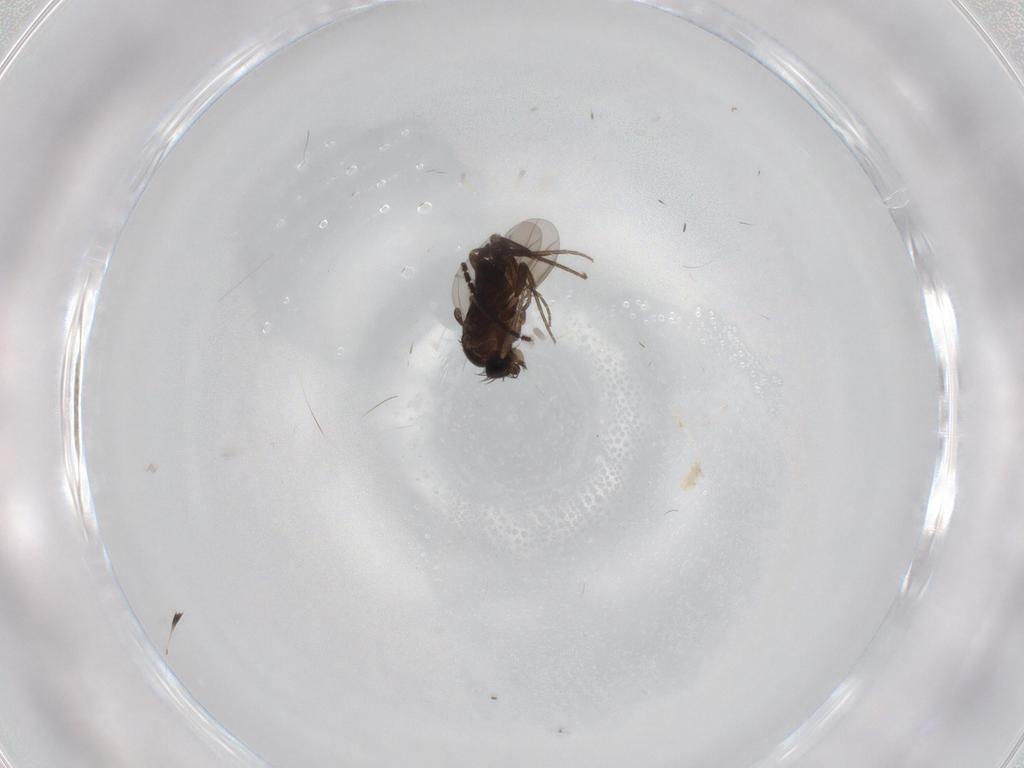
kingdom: Animalia
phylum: Arthropoda
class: Insecta
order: Diptera
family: Phoridae
